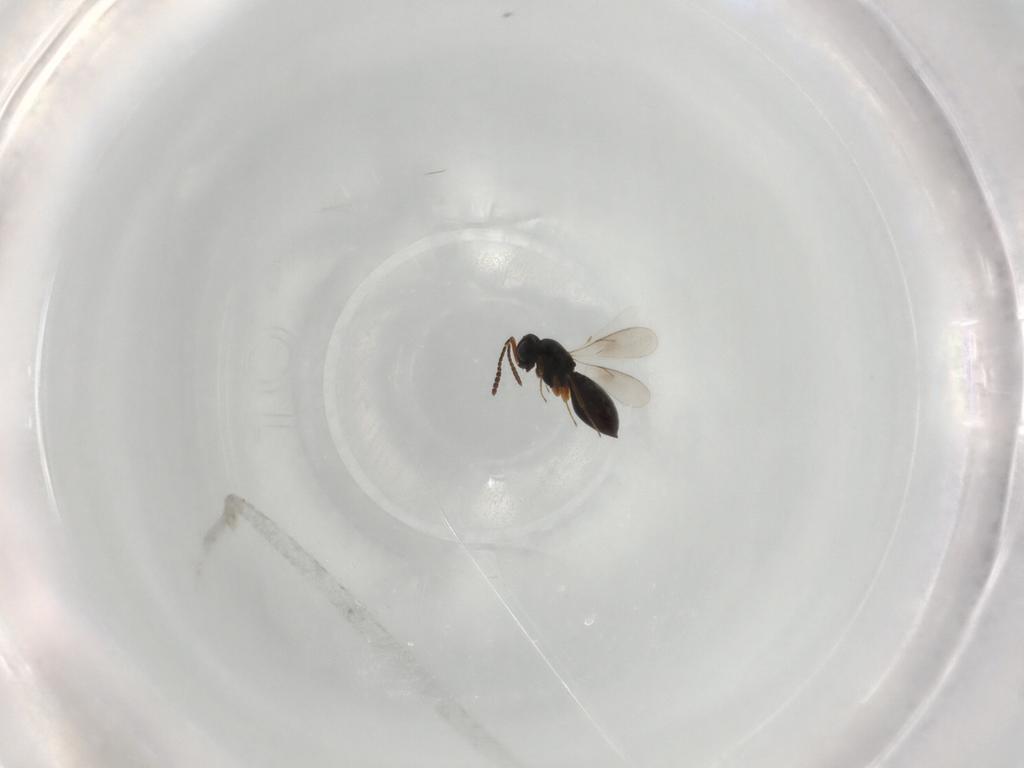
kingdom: Animalia
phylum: Arthropoda
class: Insecta
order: Hymenoptera
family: Scelionidae
